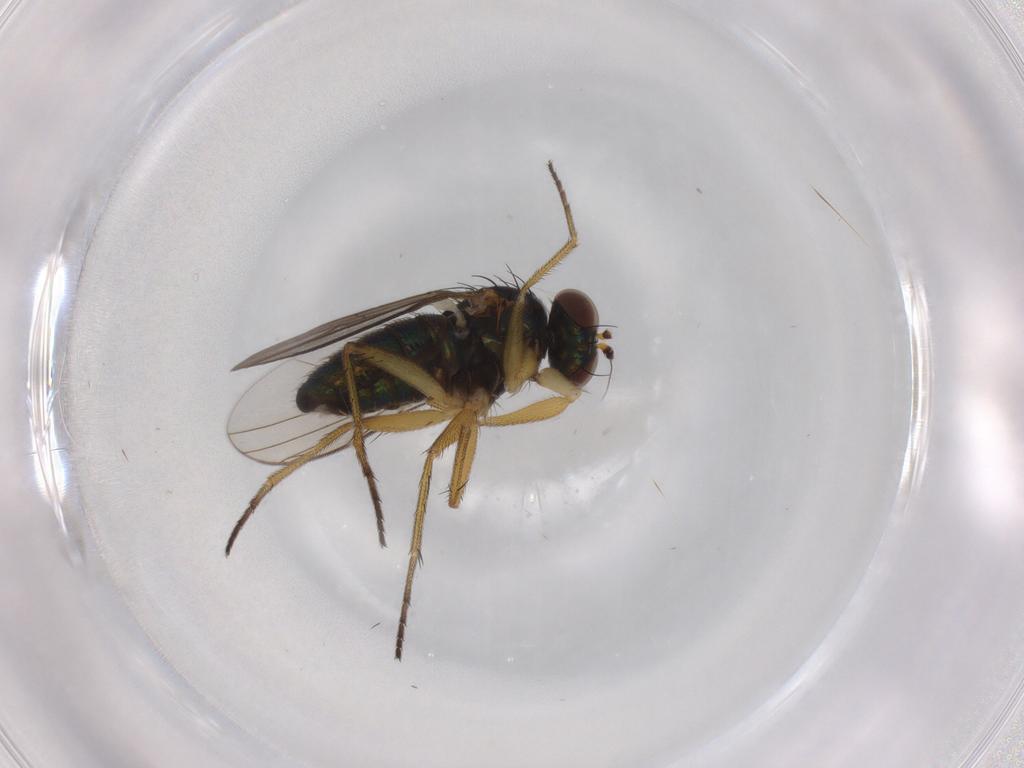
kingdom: Animalia
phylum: Arthropoda
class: Insecta
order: Diptera
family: Dolichopodidae
